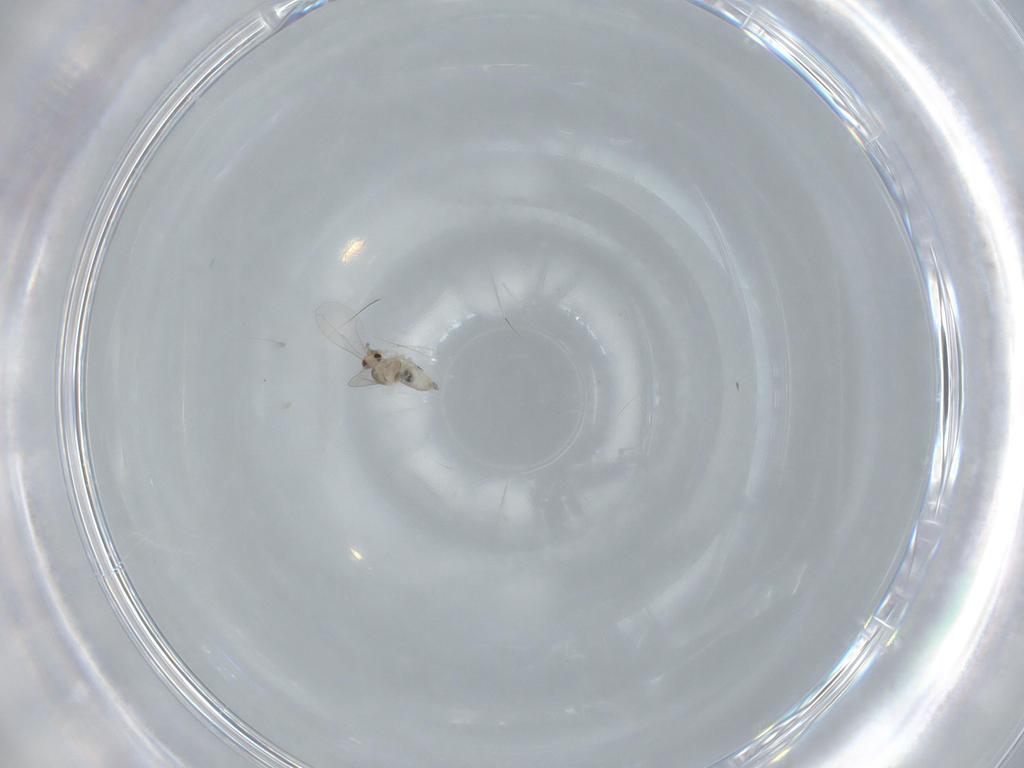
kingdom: Animalia
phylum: Arthropoda
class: Insecta
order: Diptera
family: Cecidomyiidae
